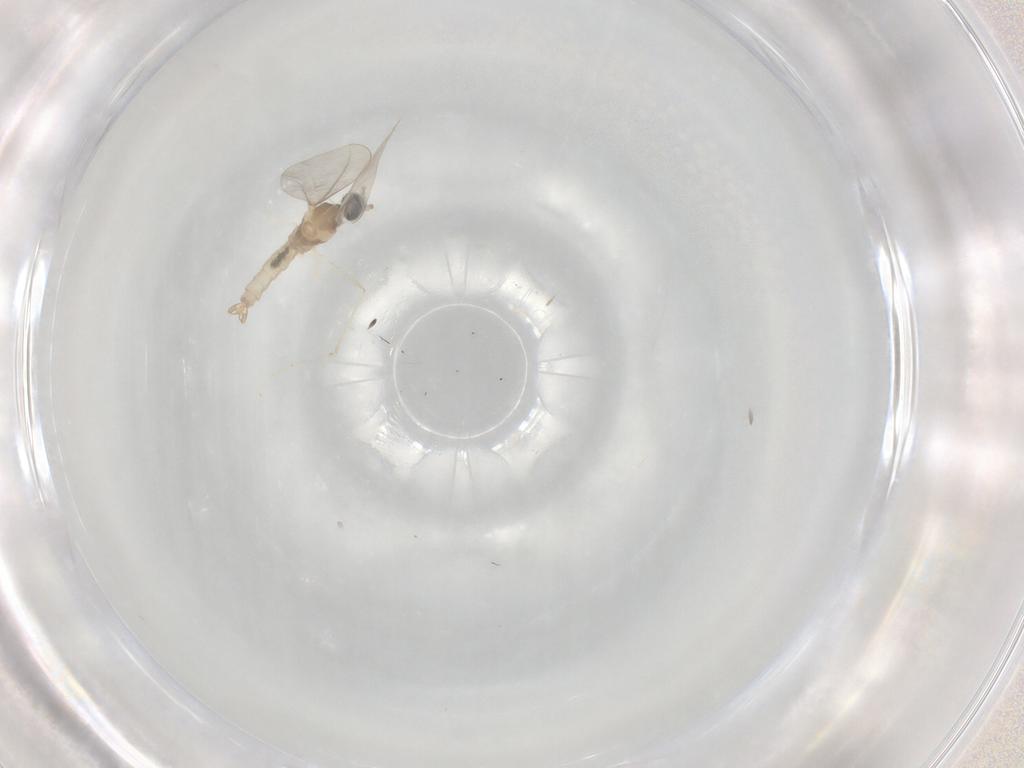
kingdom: Animalia
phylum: Arthropoda
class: Insecta
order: Diptera
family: Cecidomyiidae
